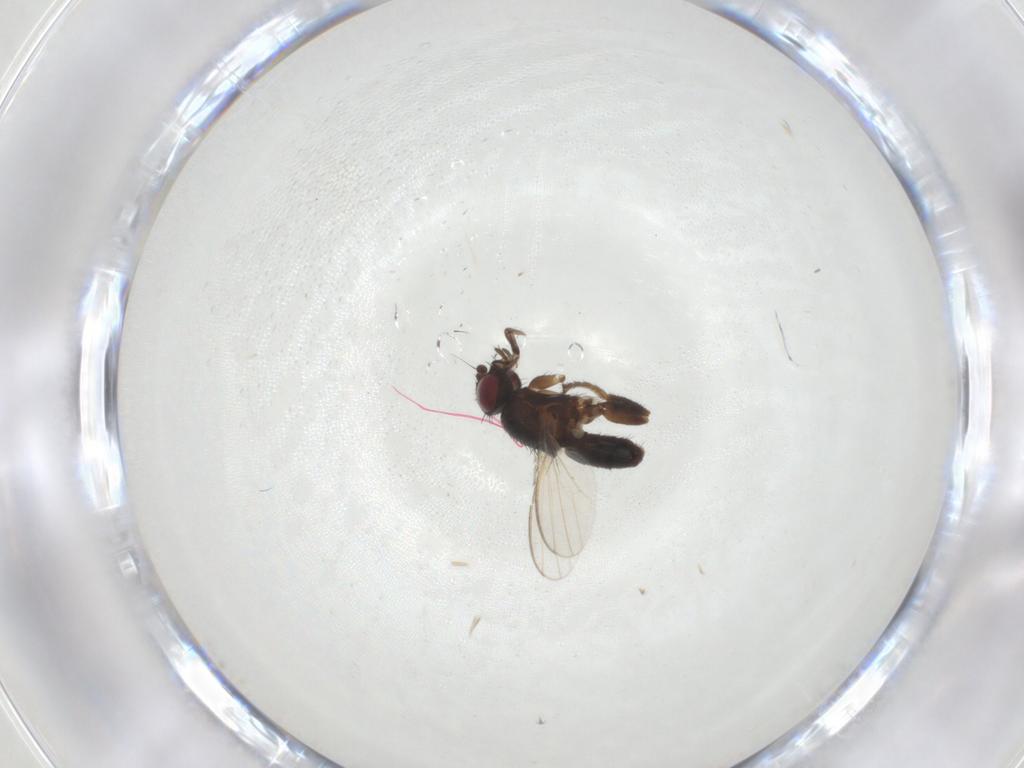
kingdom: Animalia
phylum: Arthropoda
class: Insecta
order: Diptera
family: Milichiidae
